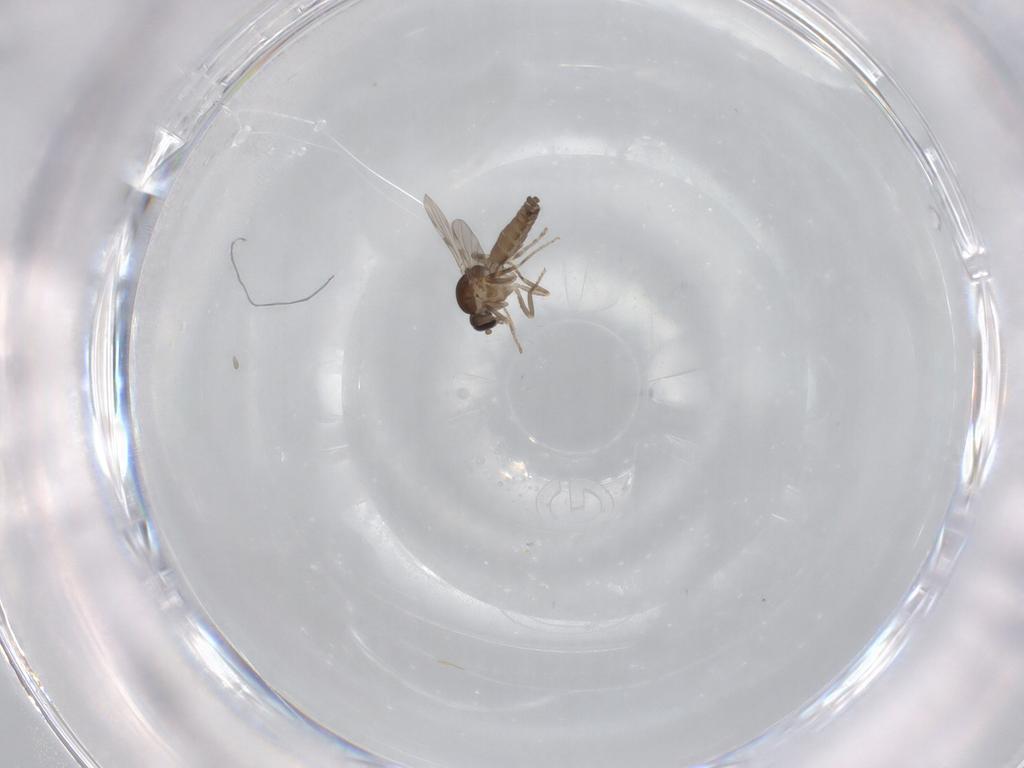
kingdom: Animalia
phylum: Arthropoda
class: Insecta
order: Diptera
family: Ceratopogonidae
